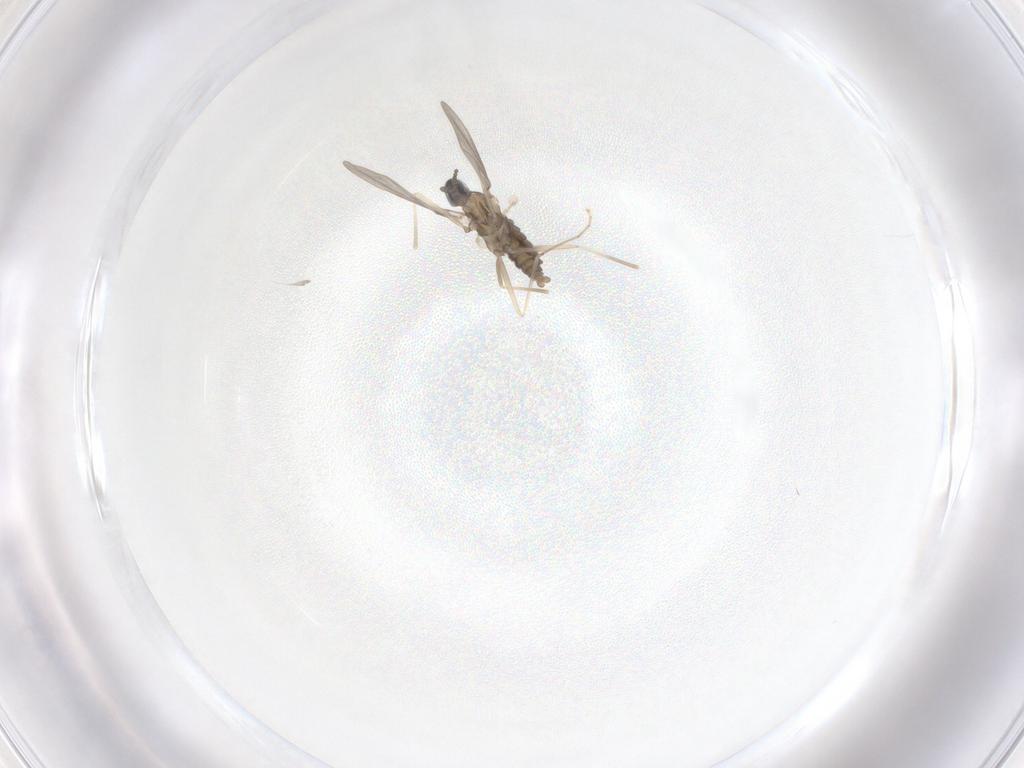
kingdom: Animalia
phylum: Arthropoda
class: Insecta
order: Diptera
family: Cecidomyiidae
